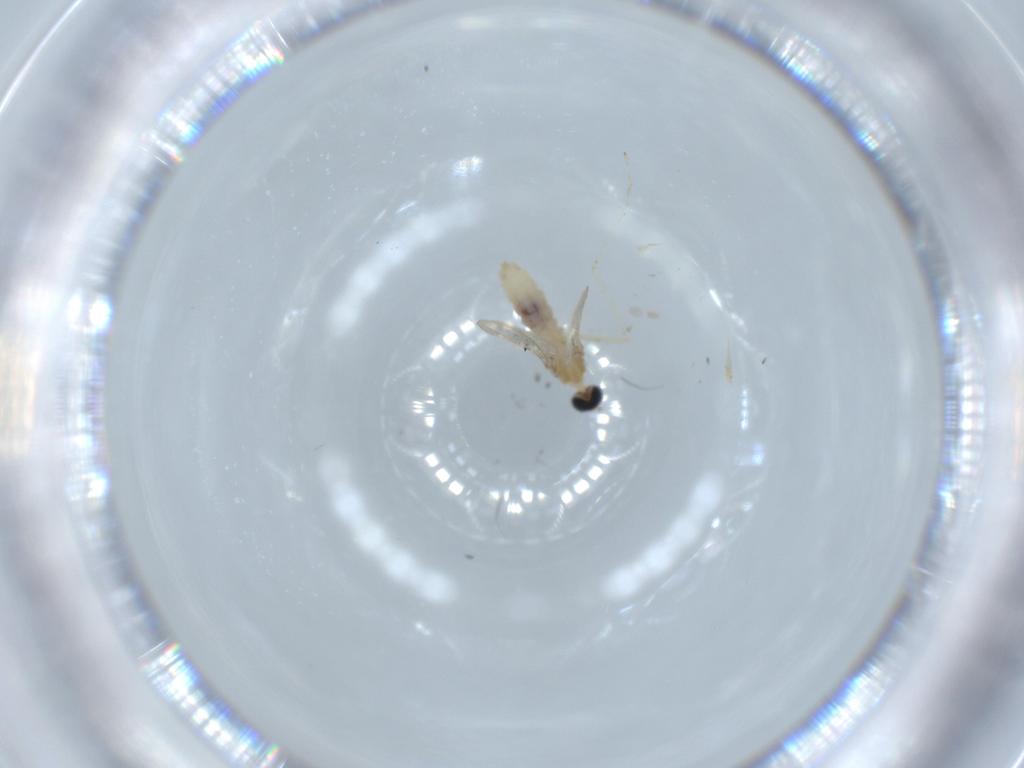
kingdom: Animalia
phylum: Arthropoda
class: Insecta
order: Diptera
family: Cecidomyiidae
